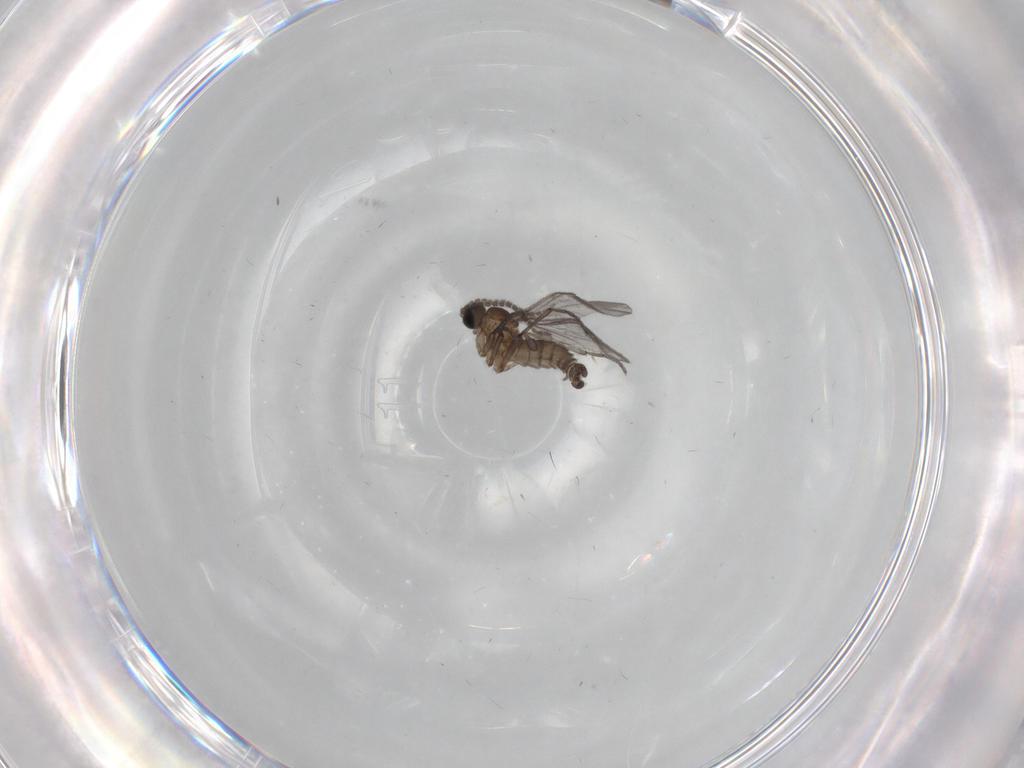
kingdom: Animalia
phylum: Arthropoda
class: Insecta
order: Diptera
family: Sciaridae
